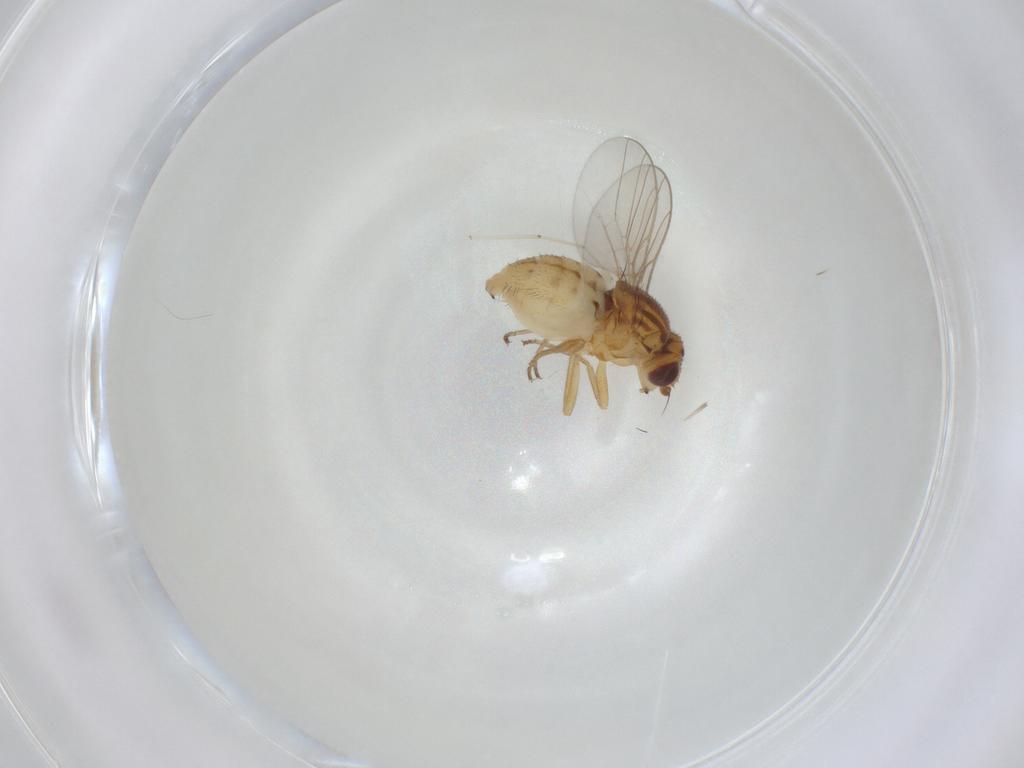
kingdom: Animalia
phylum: Arthropoda
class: Insecta
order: Diptera
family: Chloropidae
